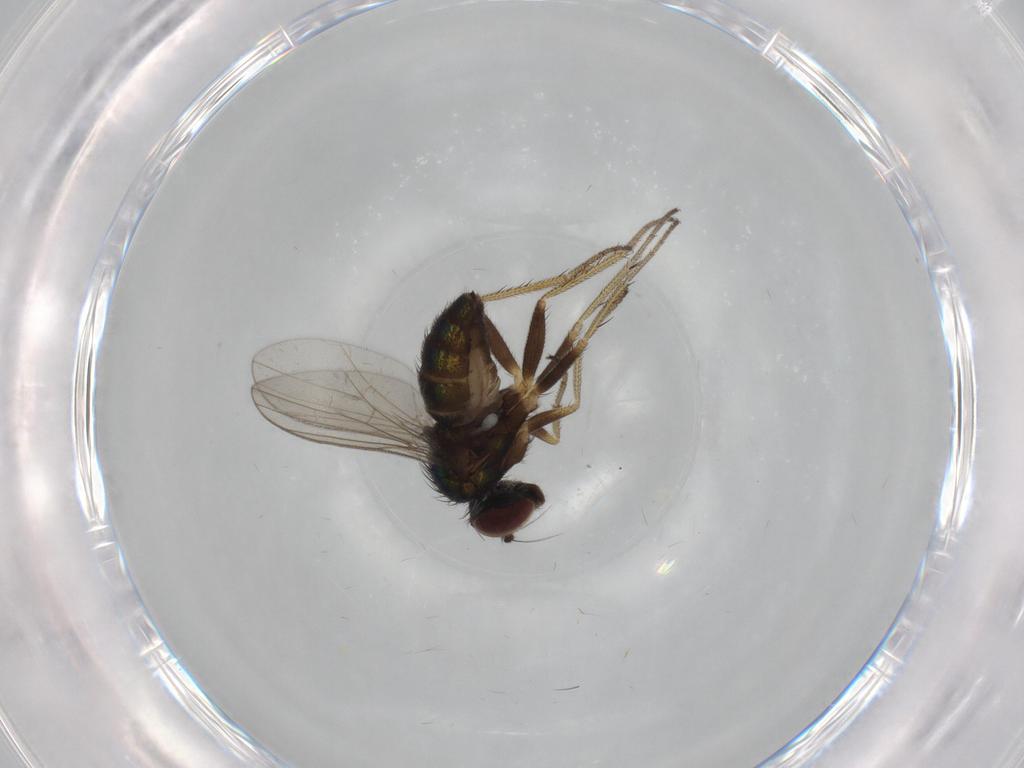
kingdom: Animalia
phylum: Arthropoda
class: Insecta
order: Diptera
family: Dolichopodidae
